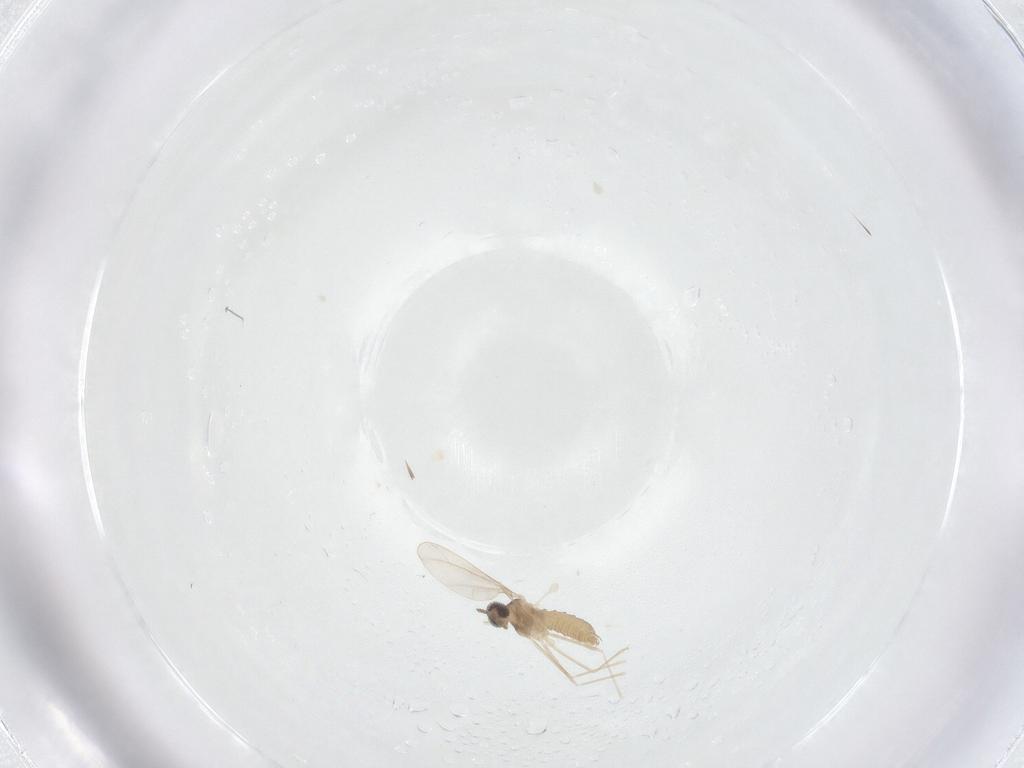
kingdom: Animalia
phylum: Arthropoda
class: Insecta
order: Diptera
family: Cecidomyiidae
